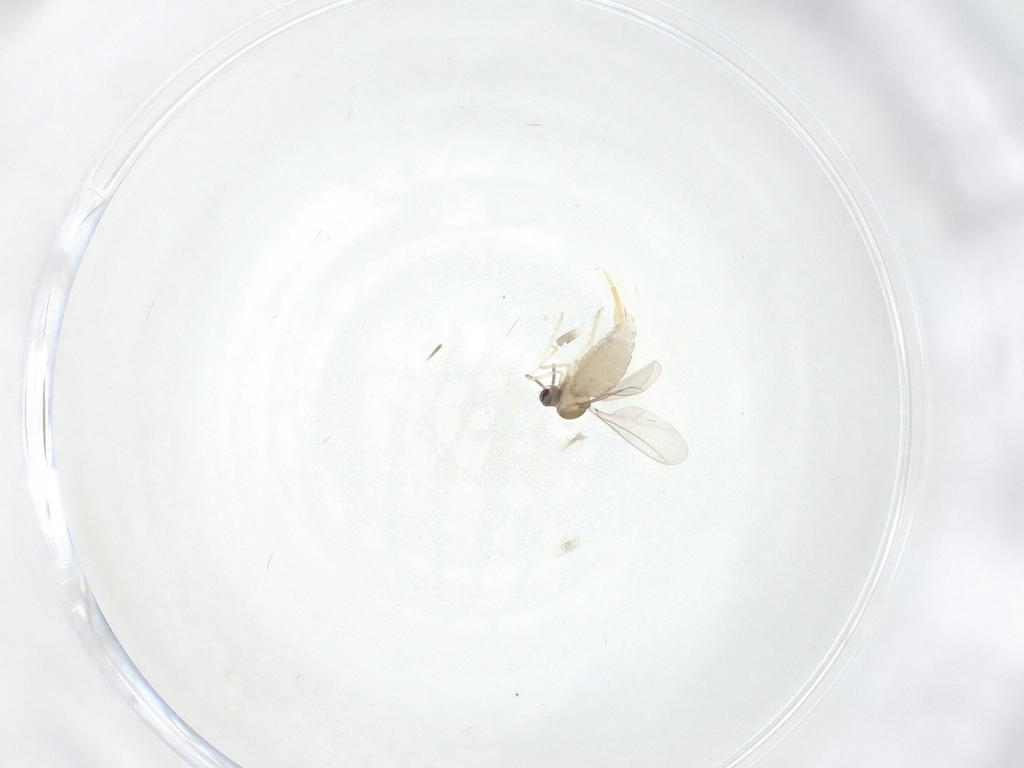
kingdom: Animalia
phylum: Arthropoda
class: Insecta
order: Diptera
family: Cecidomyiidae
